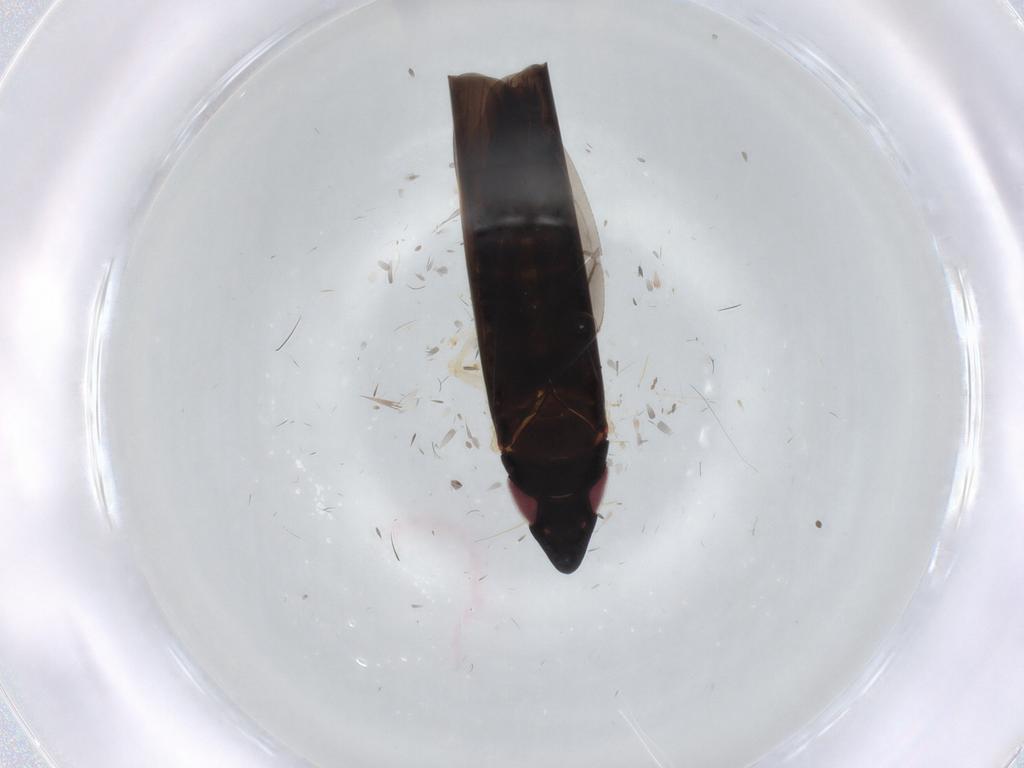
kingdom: Animalia
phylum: Arthropoda
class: Insecta
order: Hemiptera
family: Cicadellidae
